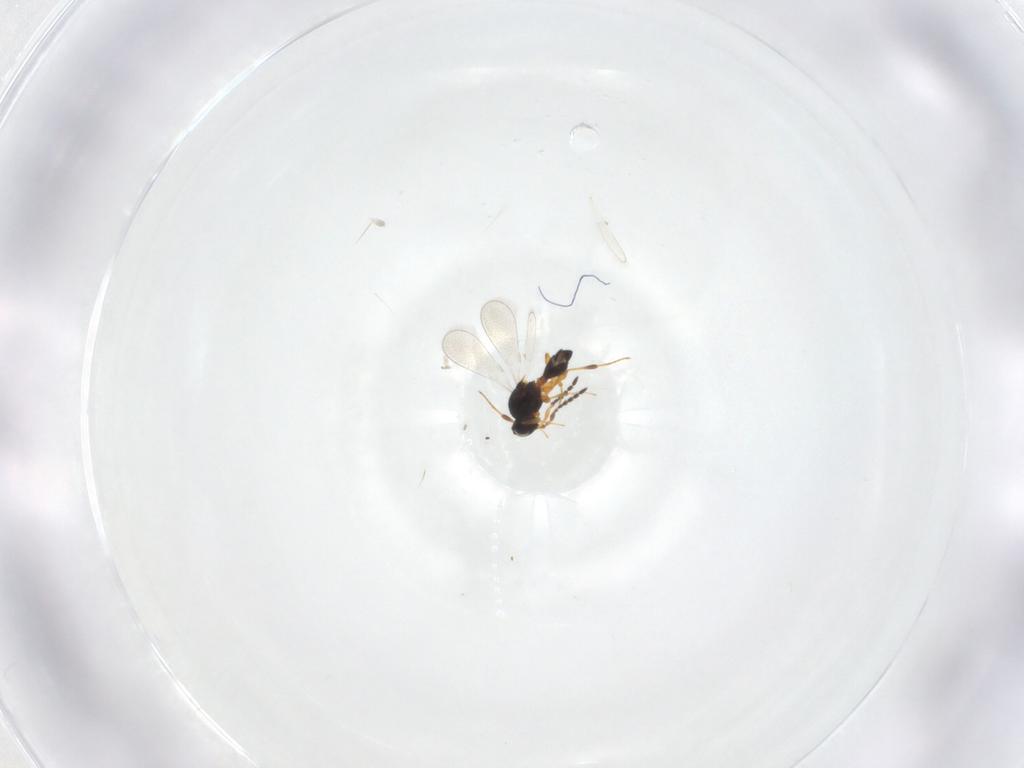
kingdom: Animalia
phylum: Arthropoda
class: Insecta
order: Hymenoptera
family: Platygastridae
